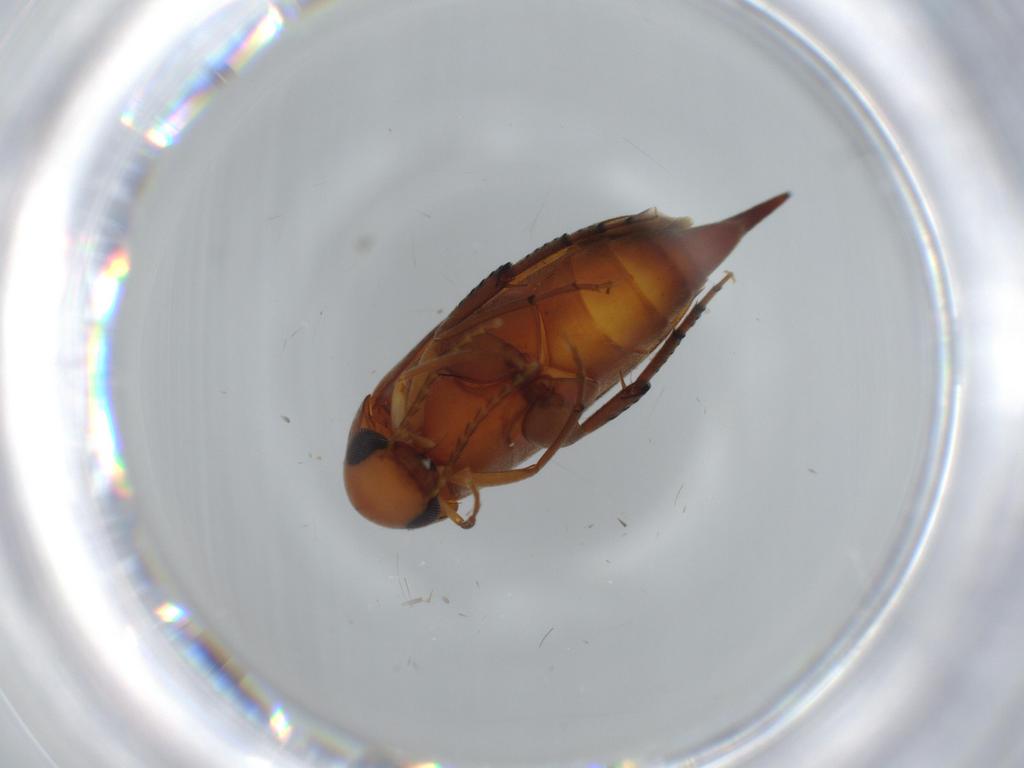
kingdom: Animalia
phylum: Arthropoda
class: Insecta
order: Coleoptera
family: Mordellidae
